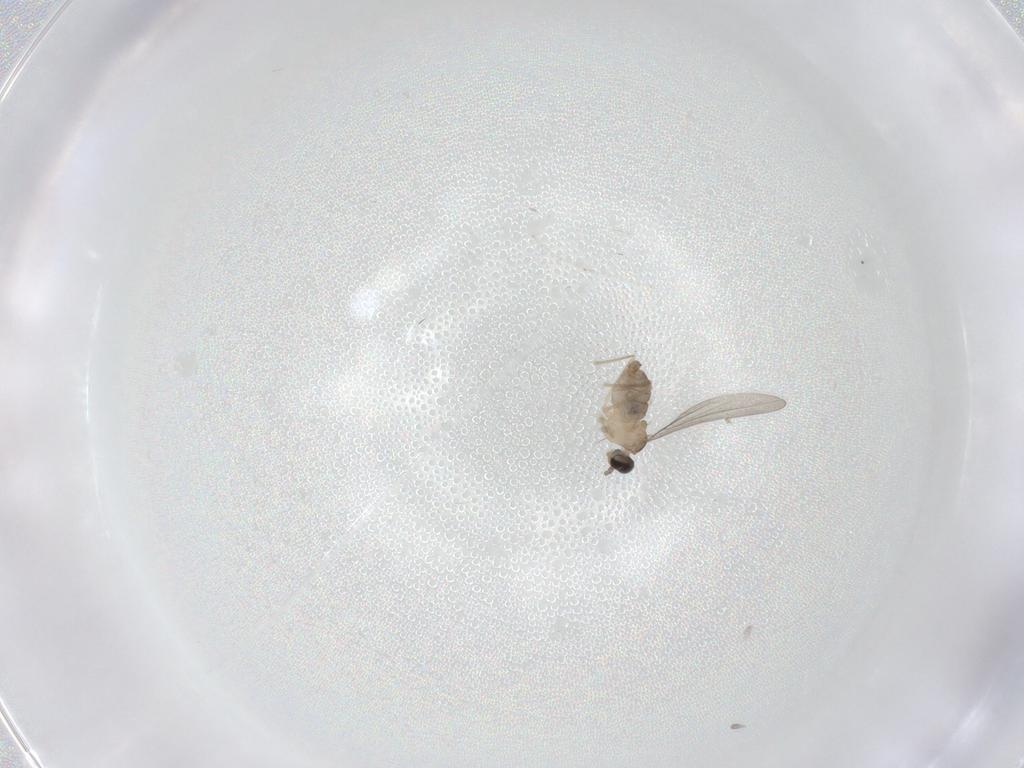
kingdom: Animalia
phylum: Arthropoda
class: Insecta
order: Diptera
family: Cecidomyiidae
